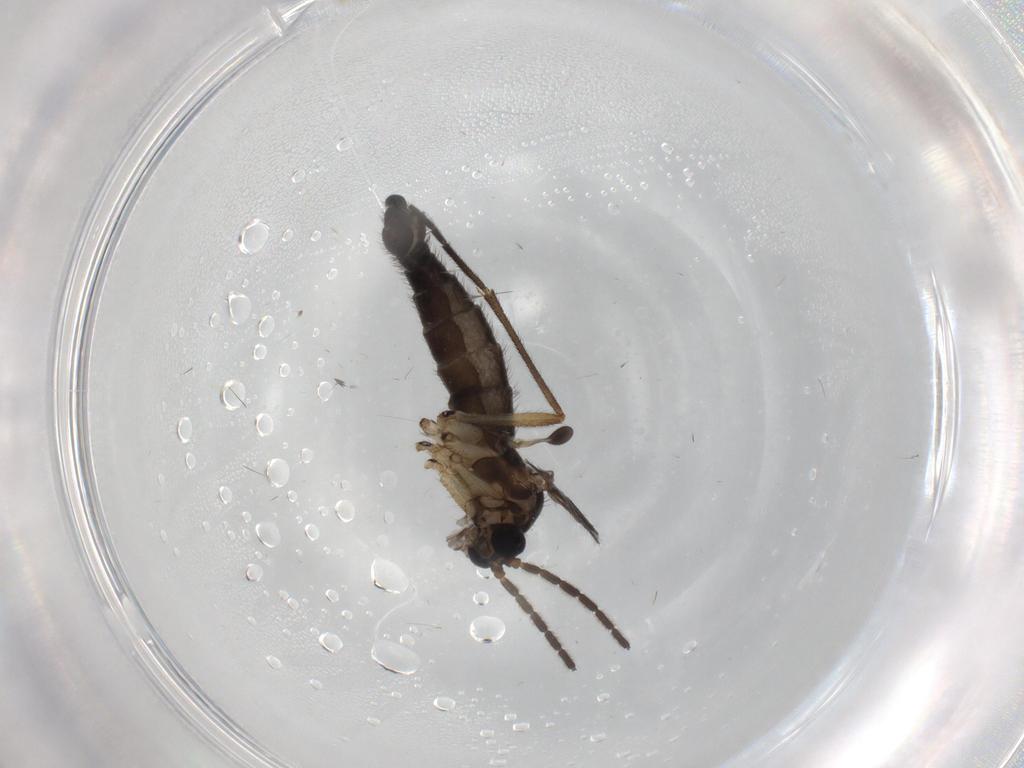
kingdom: Animalia
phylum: Arthropoda
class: Insecta
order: Diptera
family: Sciaridae
